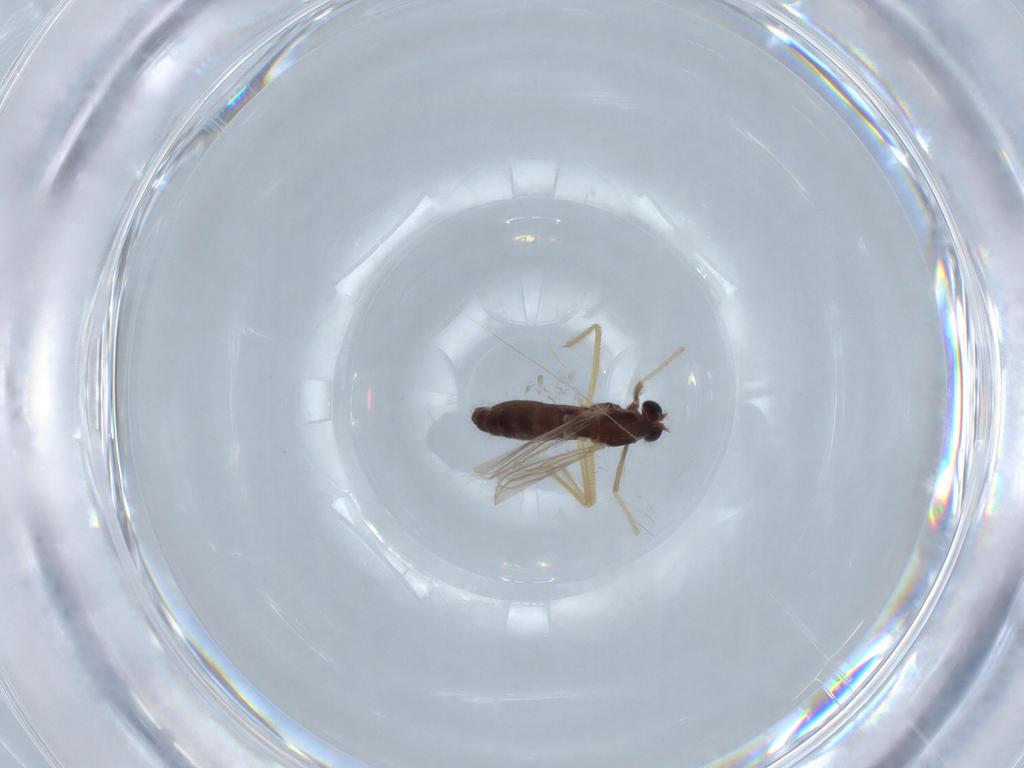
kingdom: Animalia
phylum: Arthropoda
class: Insecta
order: Diptera
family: Chironomidae
